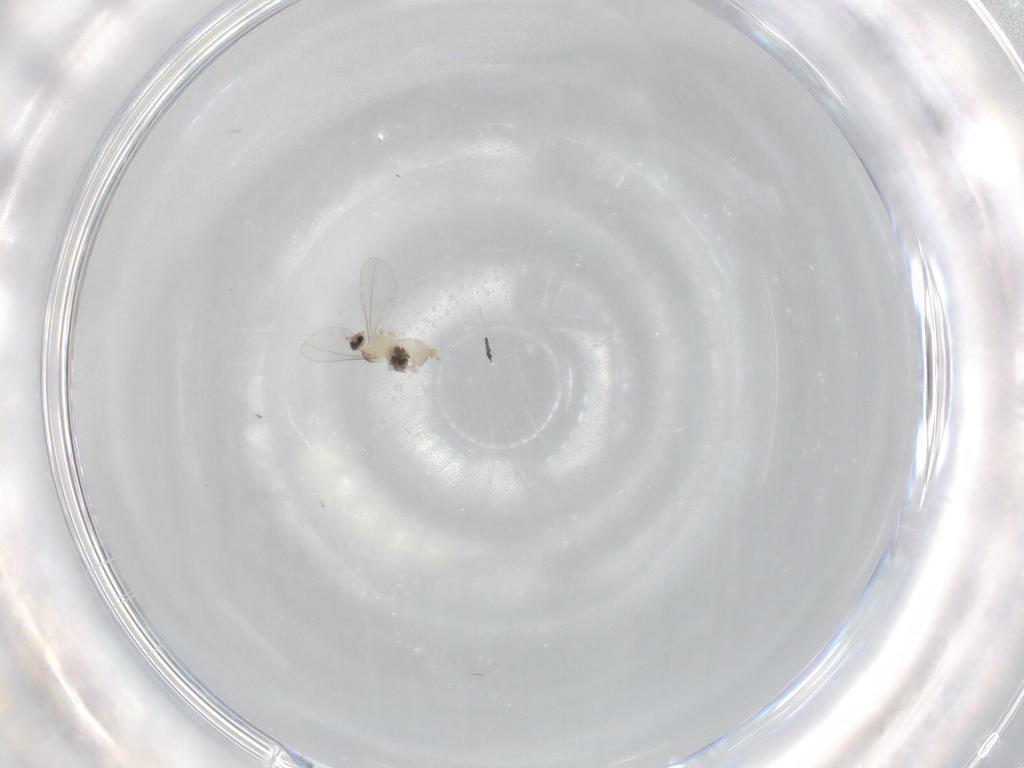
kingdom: Animalia
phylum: Arthropoda
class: Insecta
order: Diptera
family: Cecidomyiidae
